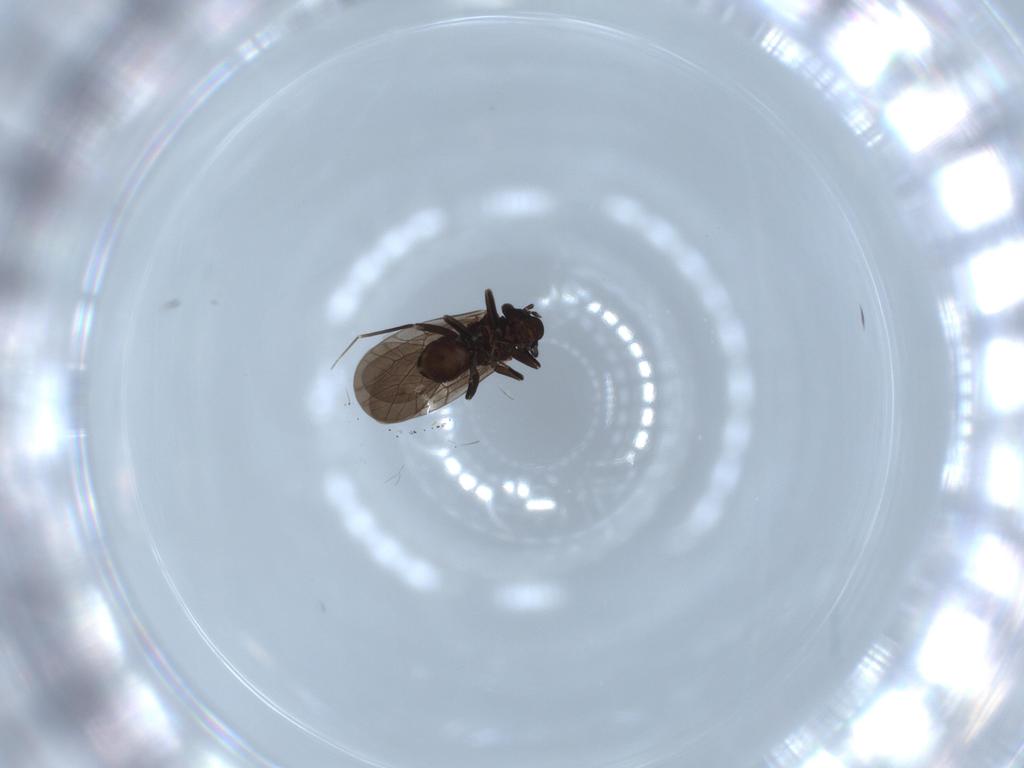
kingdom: Animalia
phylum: Arthropoda
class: Insecta
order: Psocodea
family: Lepidopsocidae
